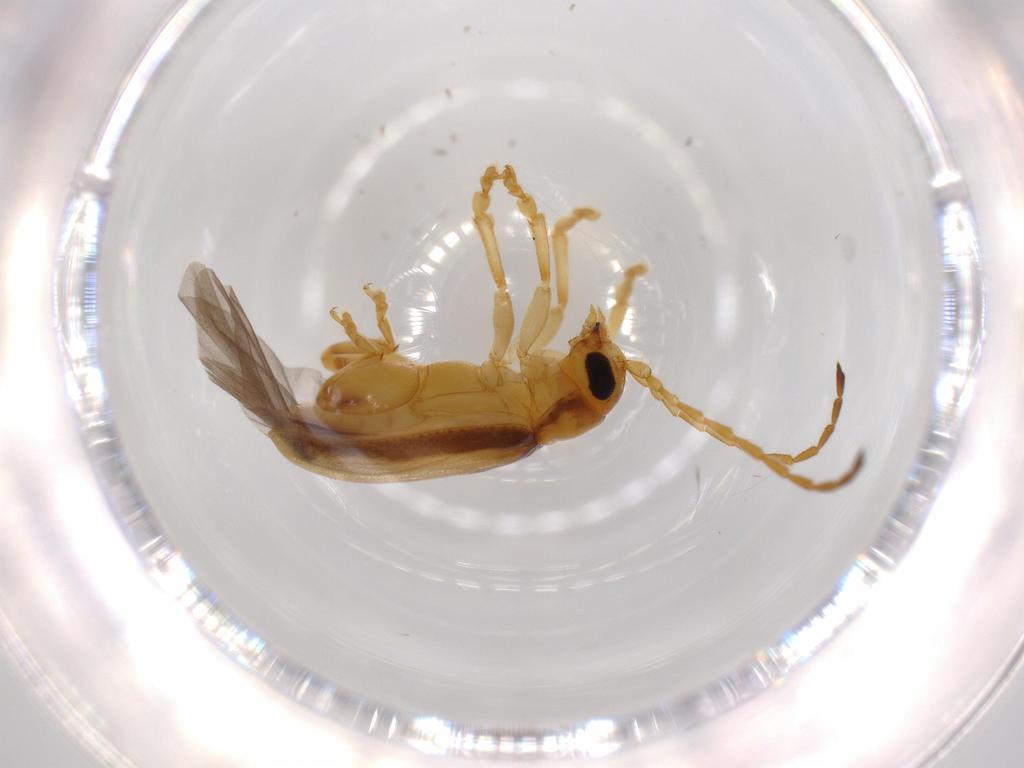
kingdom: Animalia
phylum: Arthropoda
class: Insecta
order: Coleoptera
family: Chrysomelidae
